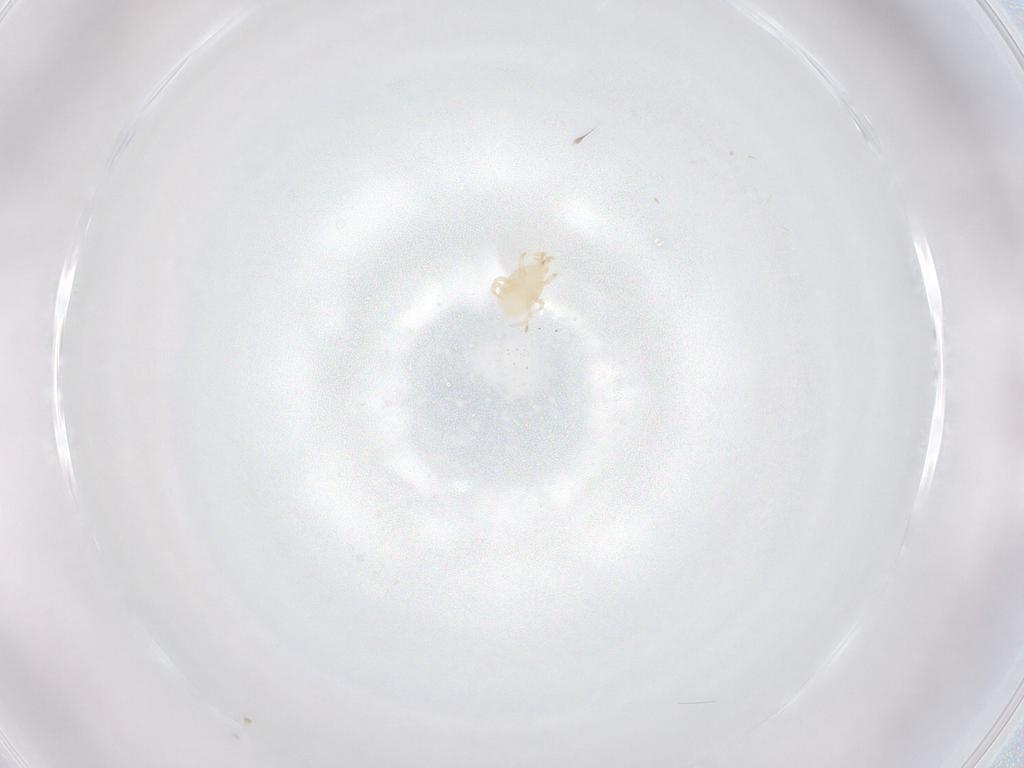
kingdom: Animalia
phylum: Arthropoda
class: Arachnida
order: Mesostigmata
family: Melicharidae
